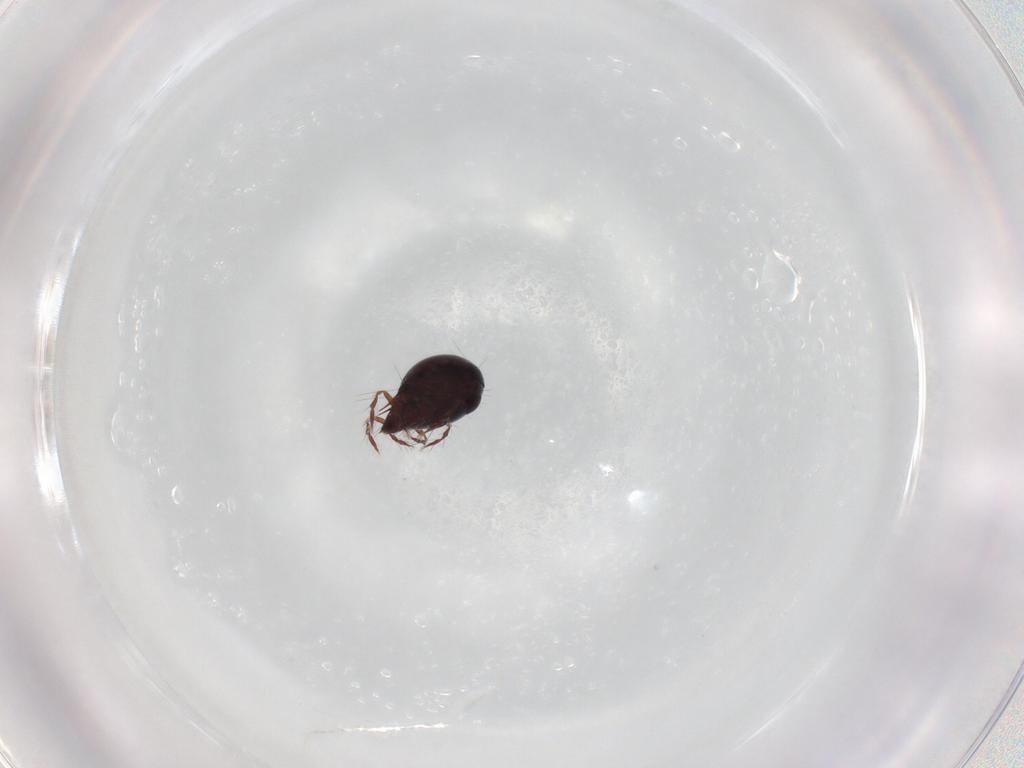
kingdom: Animalia
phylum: Arthropoda
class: Arachnida
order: Sarcoptiformes
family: Ceratoppiidae
